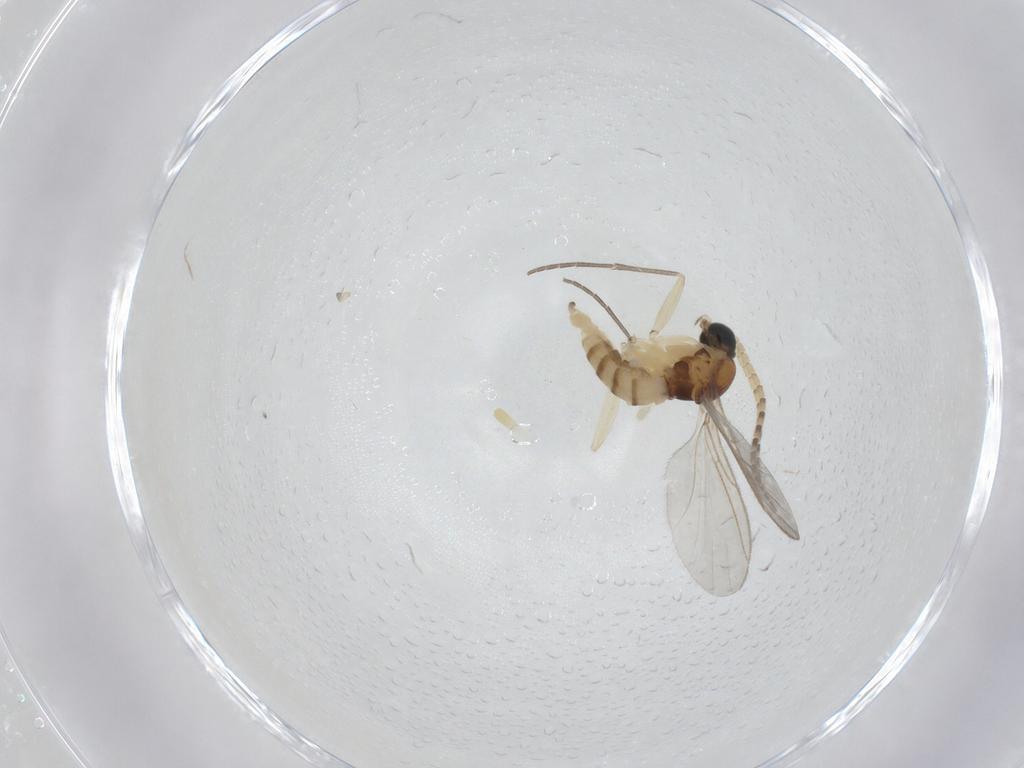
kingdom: Animalia
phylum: Arthropoda
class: Insecta
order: Diptera
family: Sciaridae
